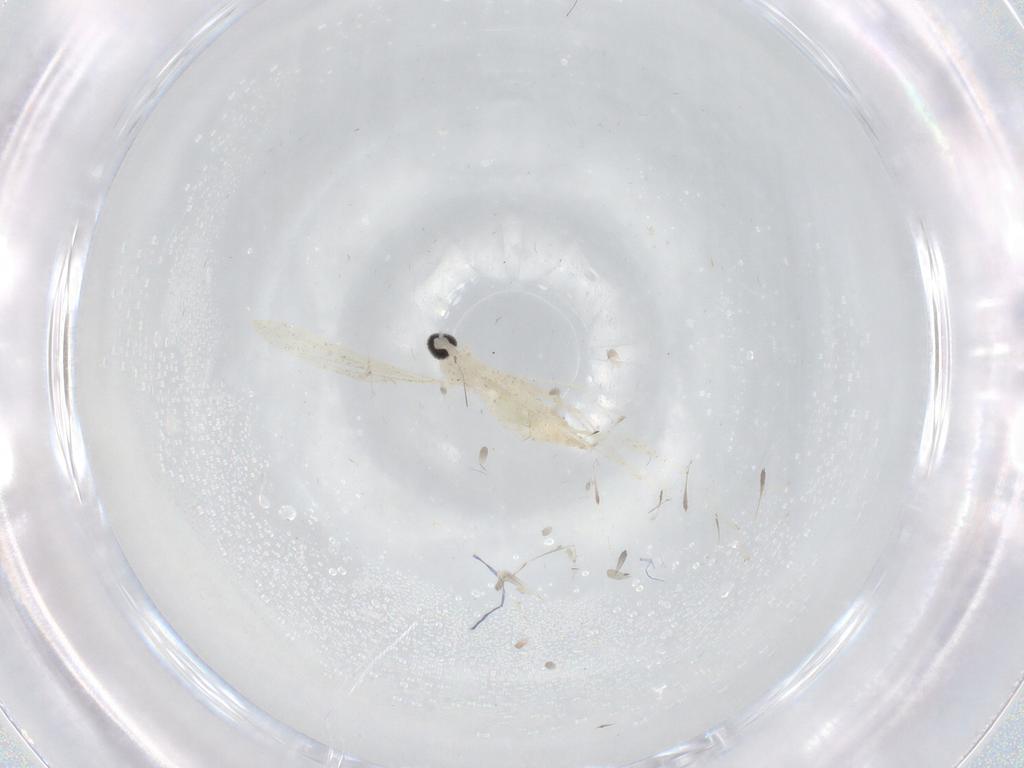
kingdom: Animalia
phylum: Arthropoda
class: Insecta
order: Diptera
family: Cecidomyiidae
